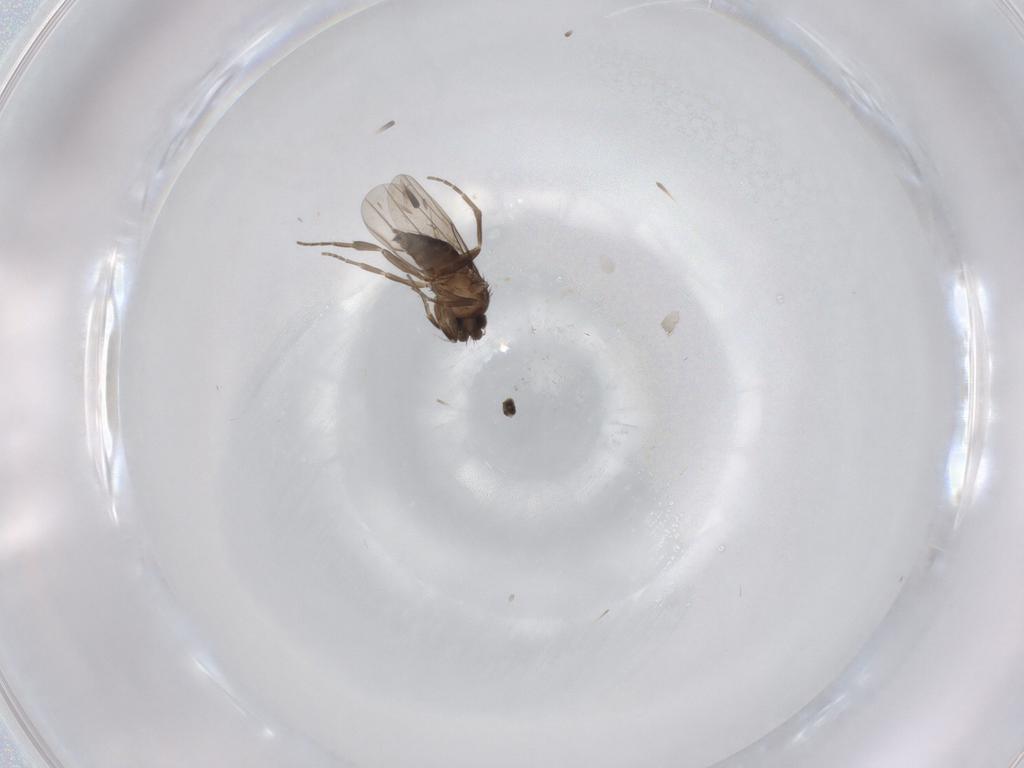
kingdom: Animalia
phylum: Arthropoda
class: Insecta
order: Diptera
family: Phoridae
